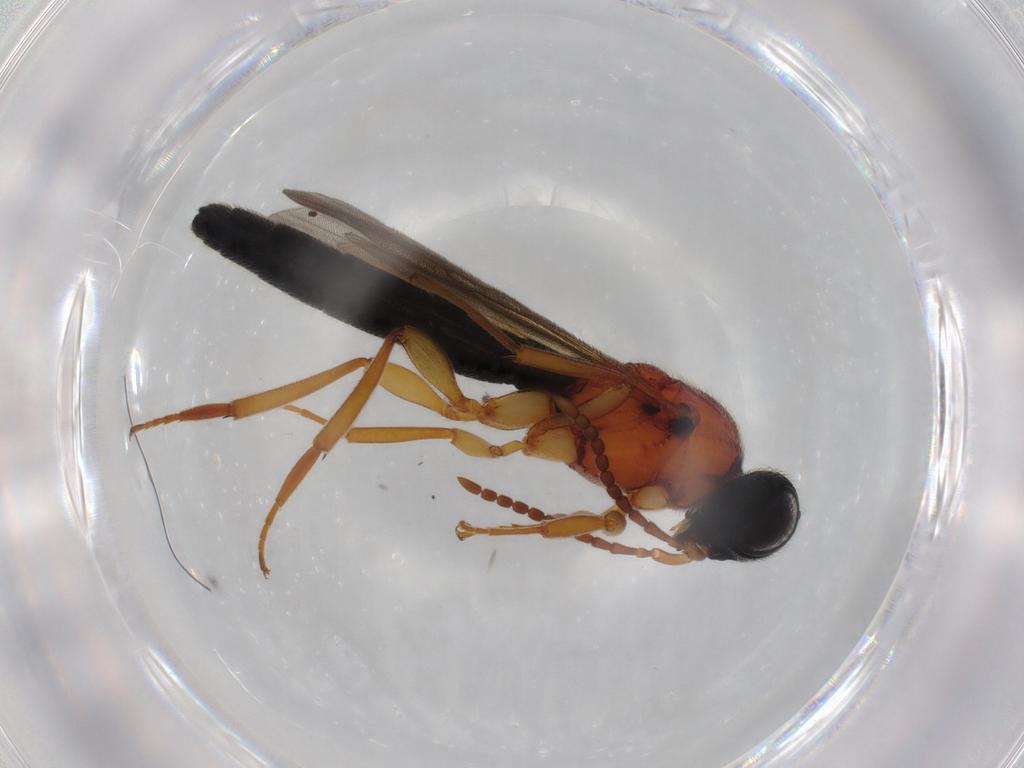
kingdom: Animalia
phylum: Arthropoda
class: Insecta
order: Hymenoptera
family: Scelionidae
